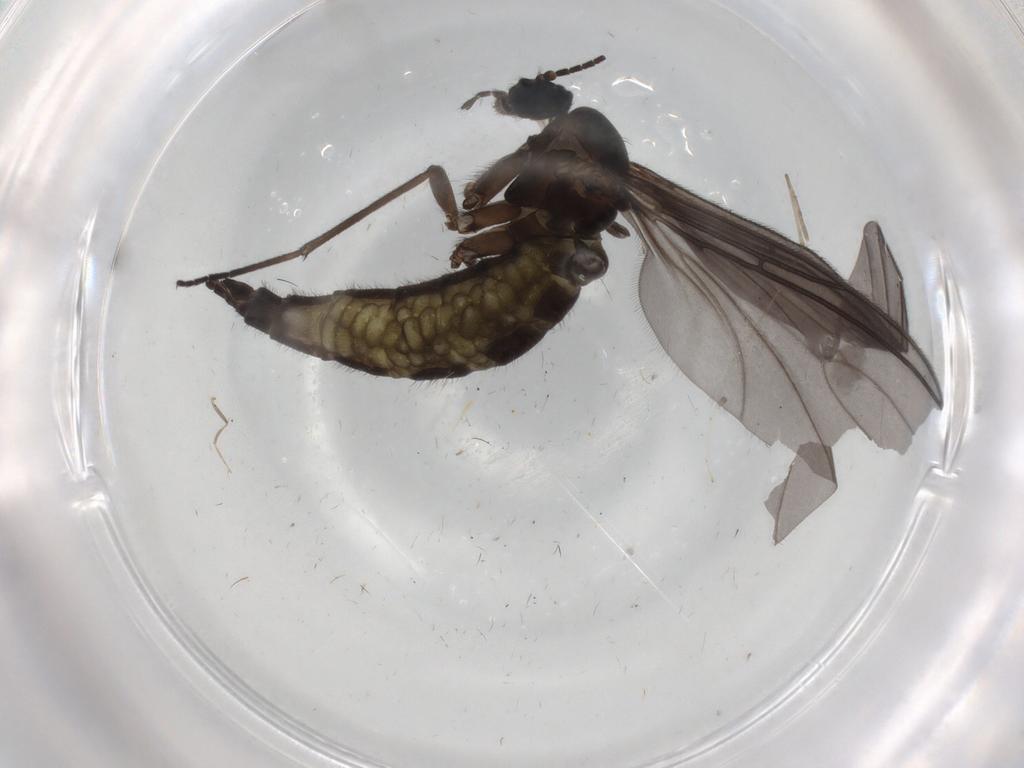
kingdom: Animalia
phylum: Arthropoda
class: Insecta
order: Diptera
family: Sciaridae
